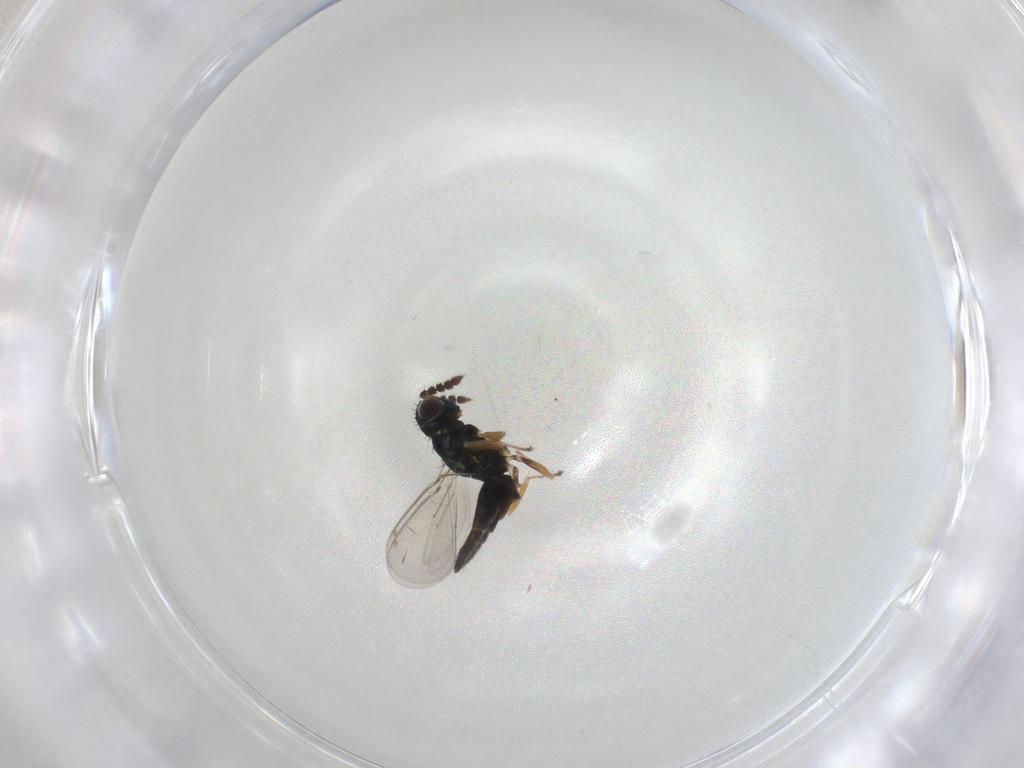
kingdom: Animalia
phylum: Arthropoda
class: Insecta
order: Hymenoptera
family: Eulophidae
